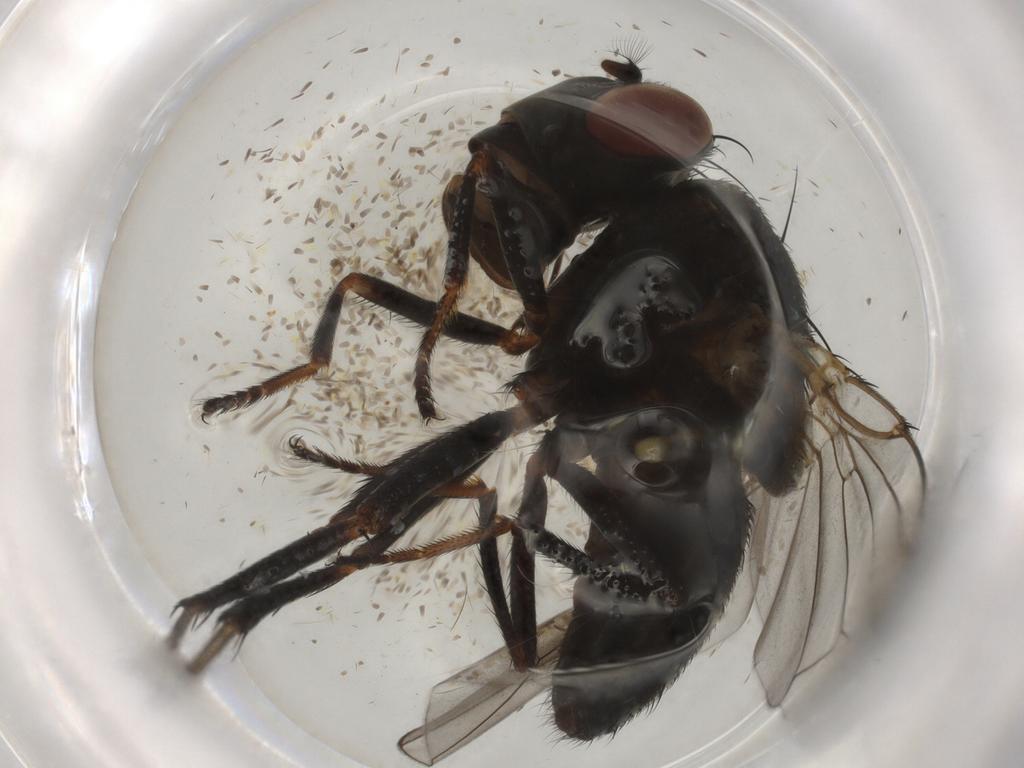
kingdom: Animalia
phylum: Arthropoda
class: Insecta
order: Diptera
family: Ephydridae
